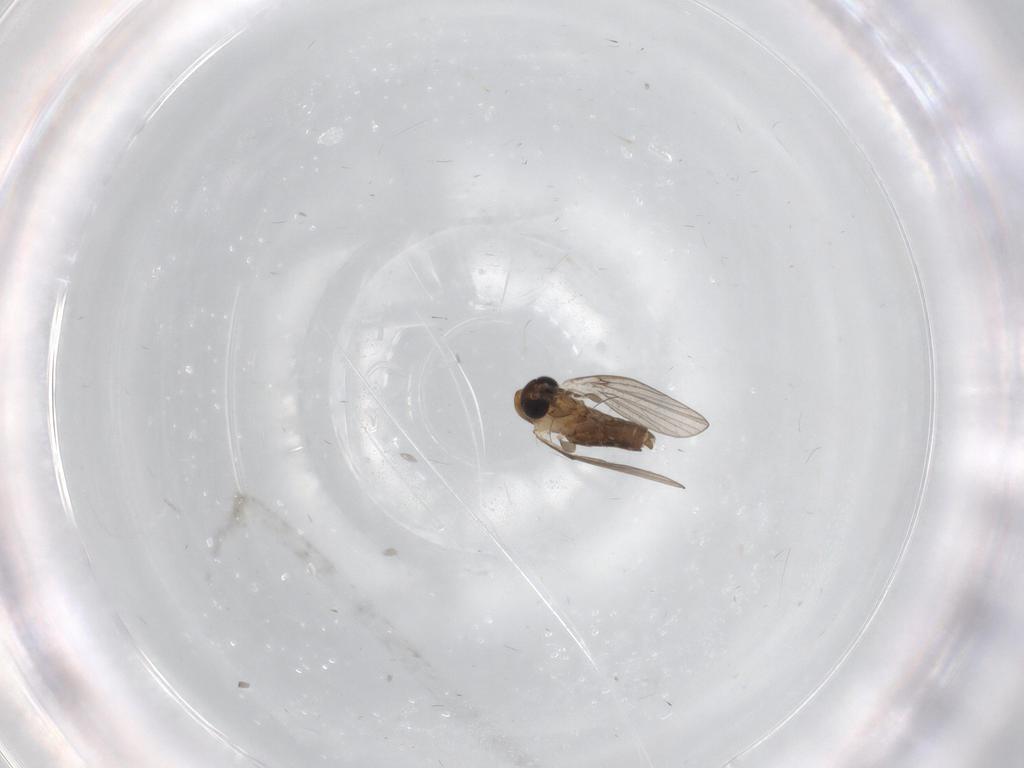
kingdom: Animalia
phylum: Arthropoda
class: Insecta
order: Diptera
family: Psychodidae
